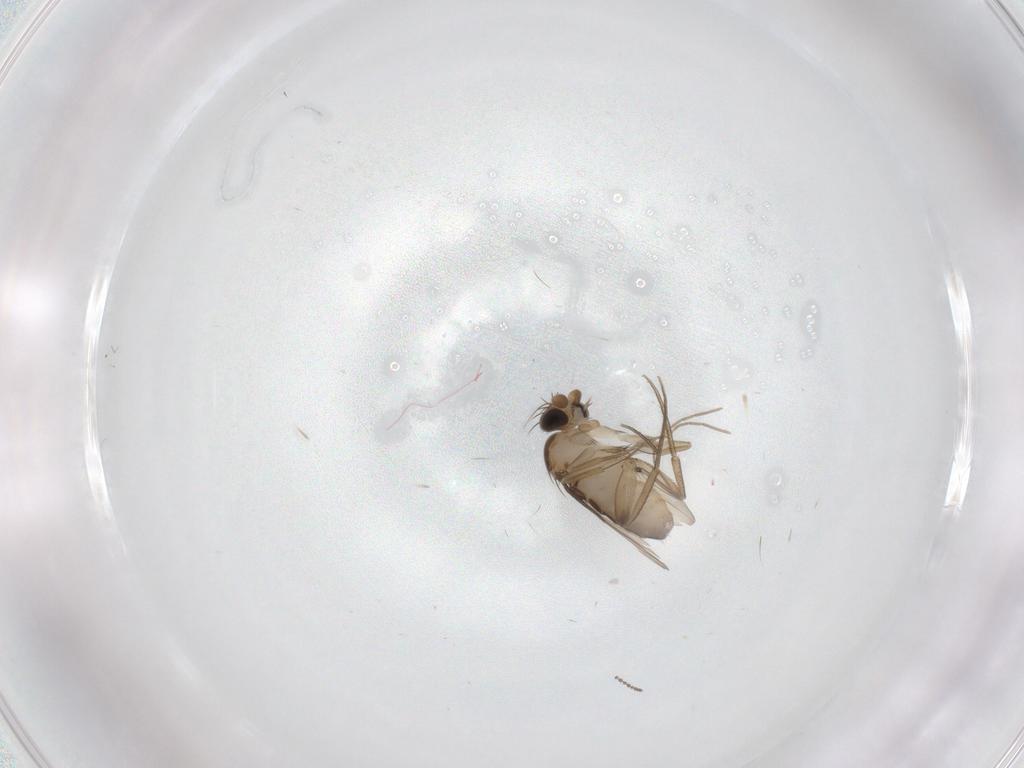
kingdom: Animalia
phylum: Arthropoda
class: Insecta
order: Diptera
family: Phoridae
